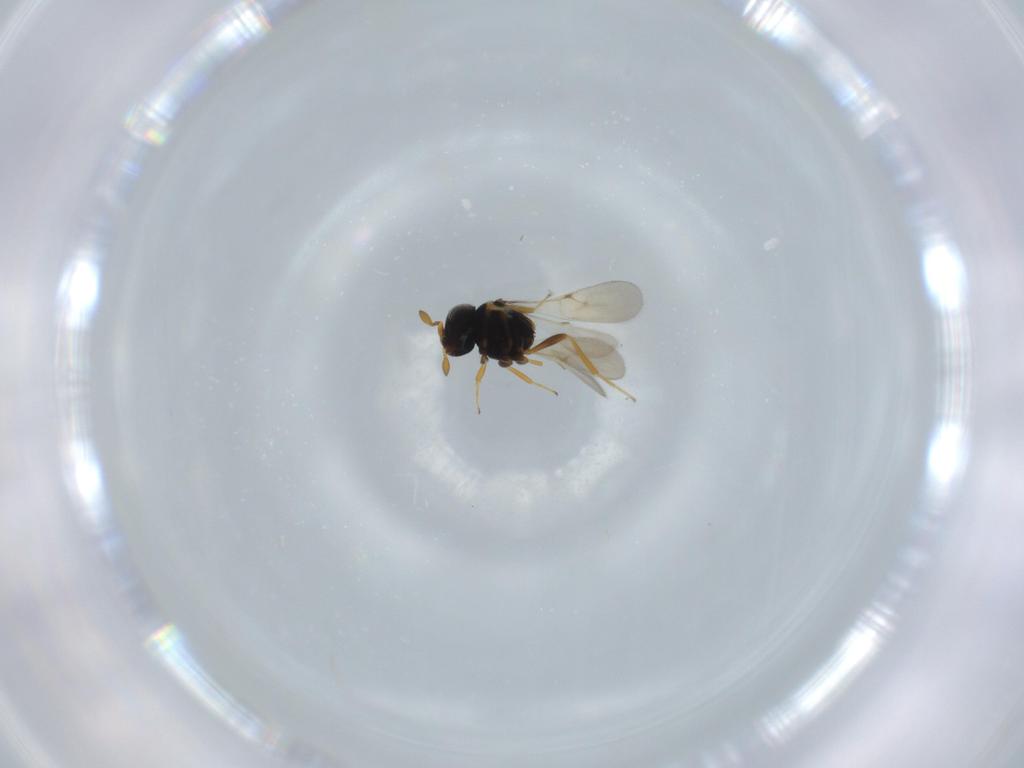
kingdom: Animalia
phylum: Arthropoda
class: Insecta
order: Hymenoptera
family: Scelionidae
